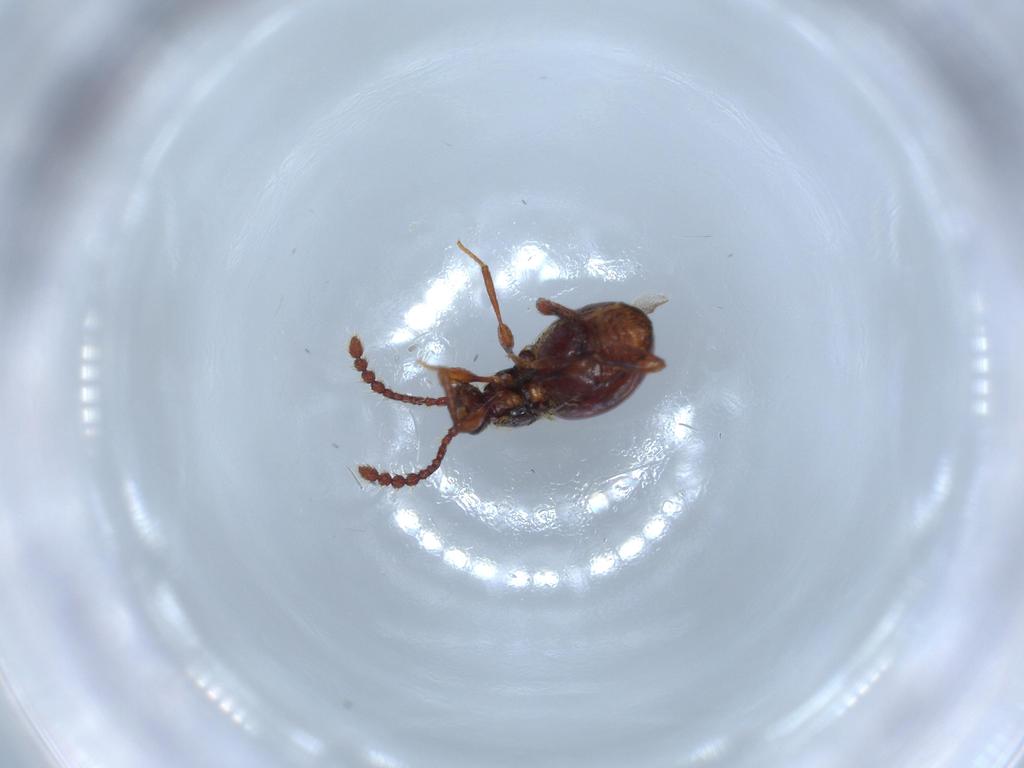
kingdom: Animalia
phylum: Arthropoda
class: Insecta
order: Coleoptera
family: Staphylinidae
